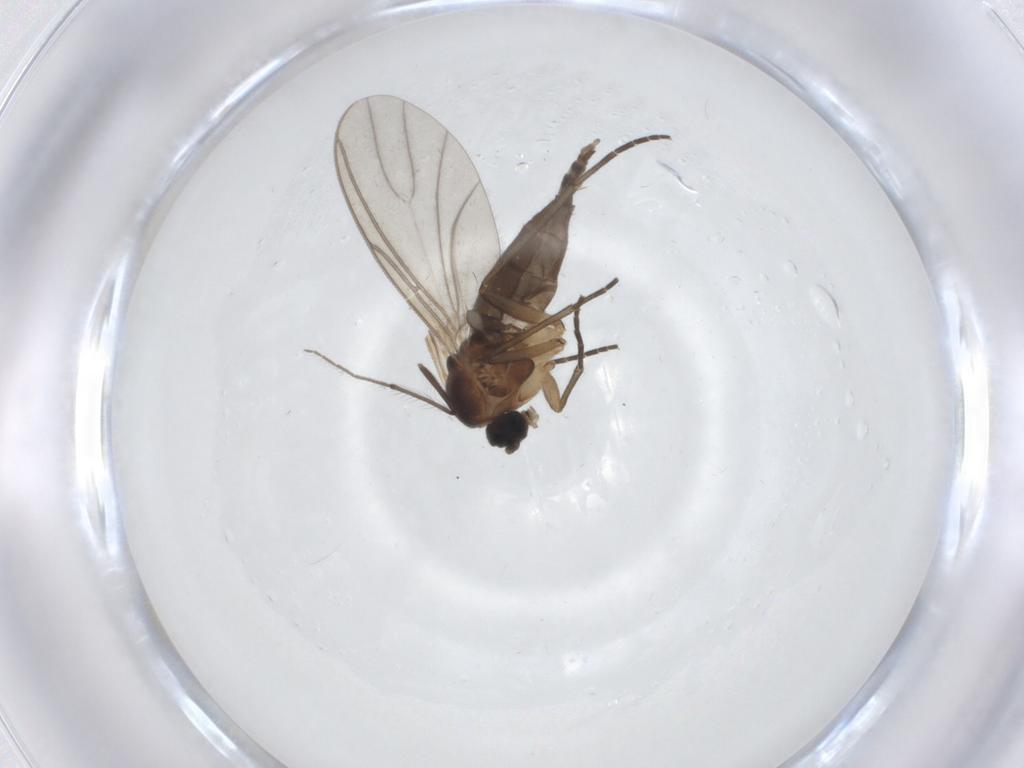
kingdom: Animalia
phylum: Arthropoda
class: Insecta
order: Diptera
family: Sciaridae
